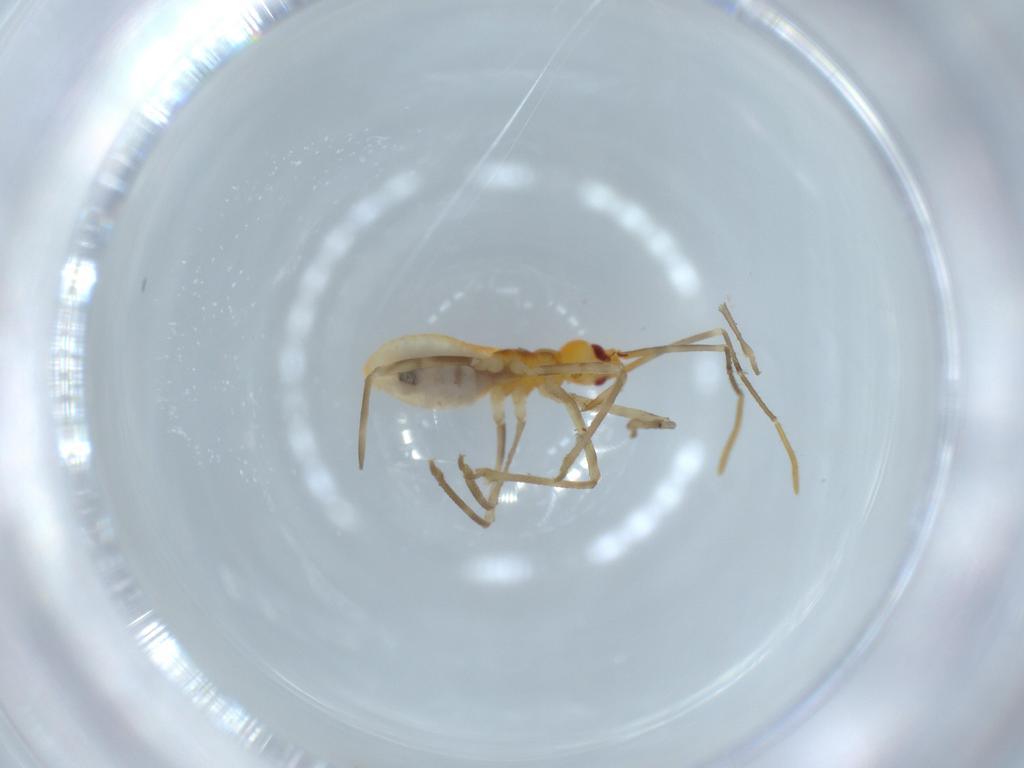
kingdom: Animalia
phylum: Arthropoda
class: Insecta
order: Hemiptera
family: Reduviidae
